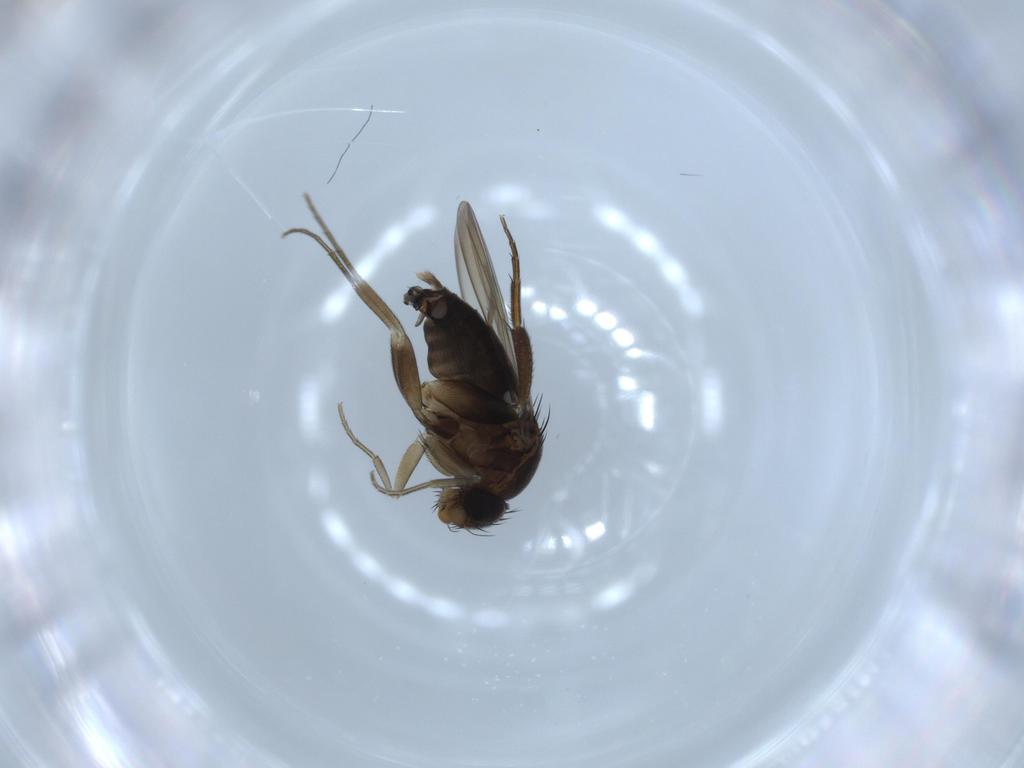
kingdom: Animalia
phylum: Arthropoda
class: Insecta
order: Diptera
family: Phoridae
